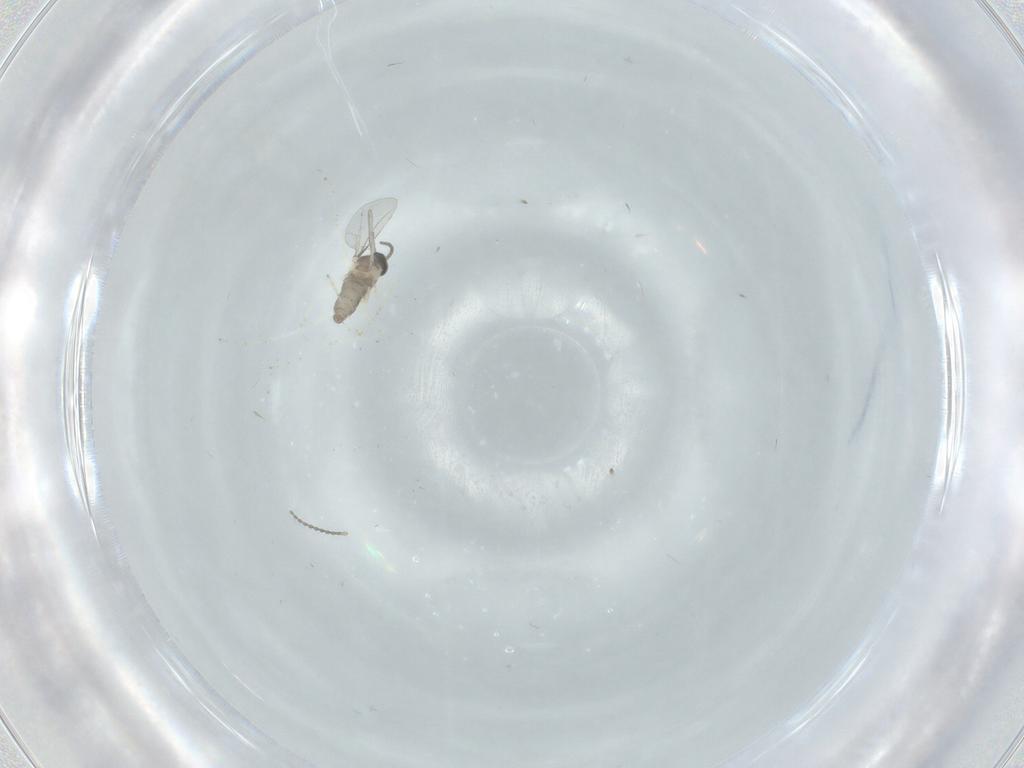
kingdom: Animalia
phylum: Arthropoda
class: Insecta
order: Diptera
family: Cecidomyiidae
